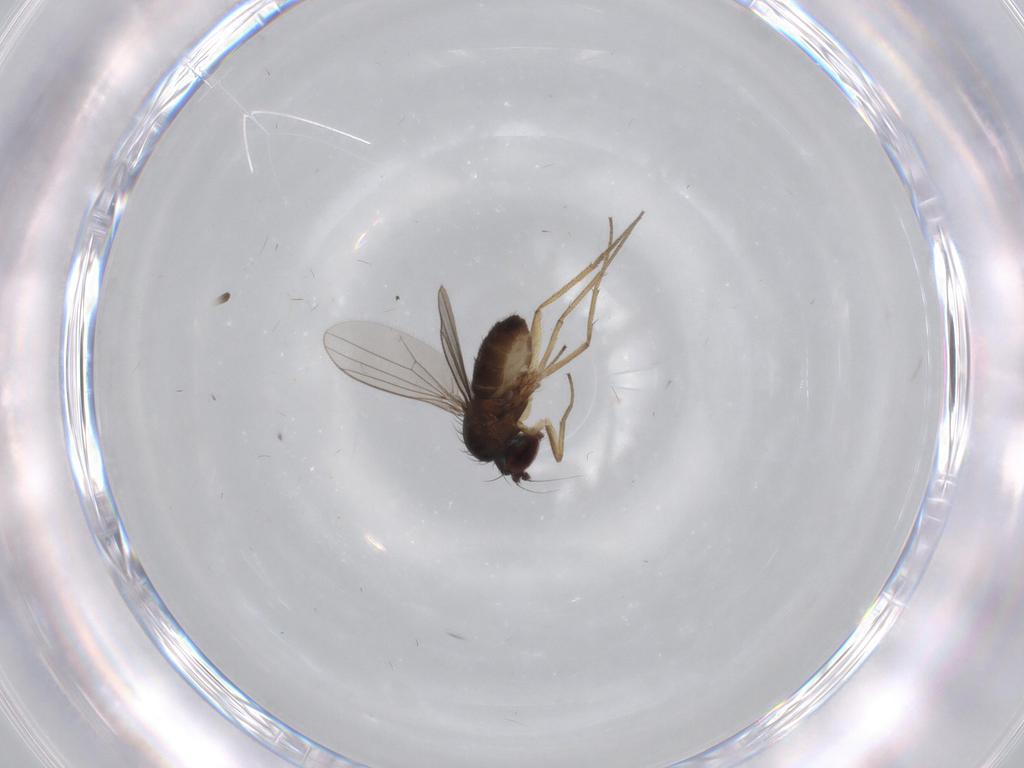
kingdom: Animalia
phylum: Arthropoda
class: Insecta
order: Diptera
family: Dolichopodidae
